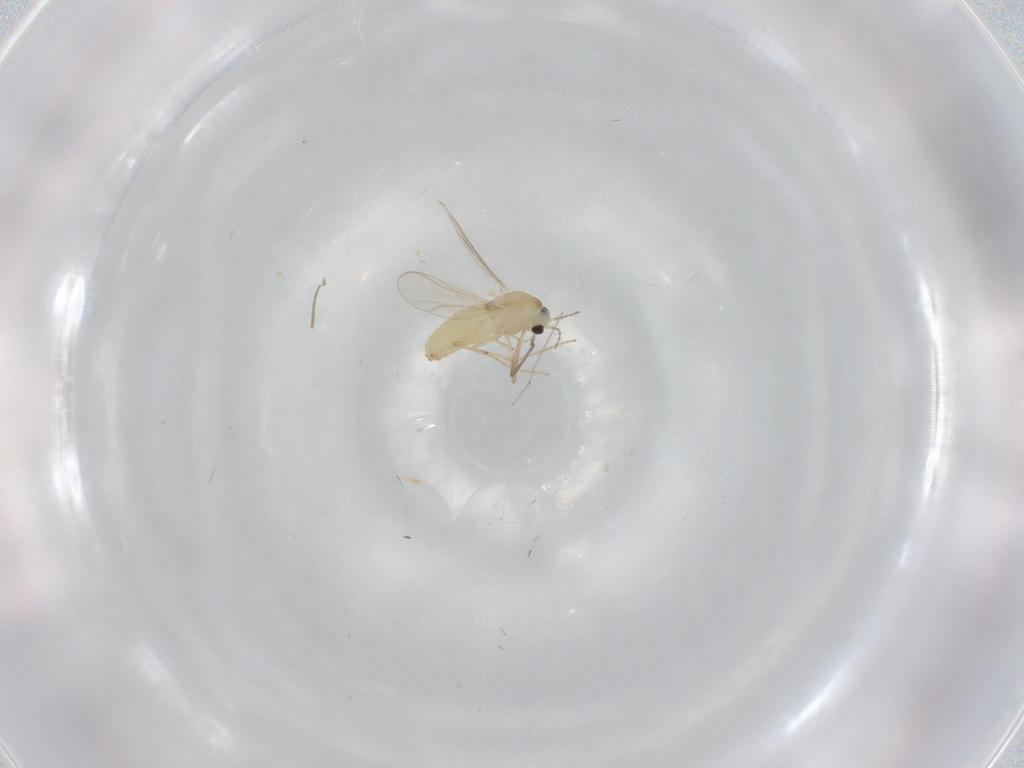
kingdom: Animalia
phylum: Arthropoda
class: Insecta
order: Diptera
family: Chironomidae
